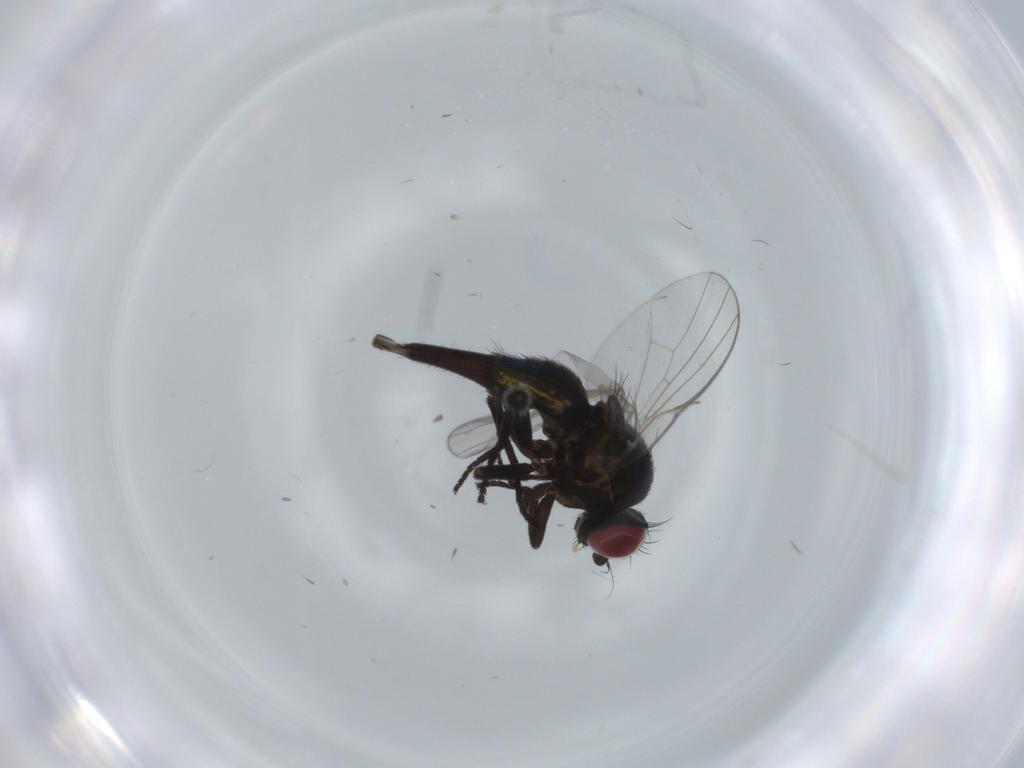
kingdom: Animalia
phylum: Arthropoda
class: Insecta
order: Diptera
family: Agromyzidae
